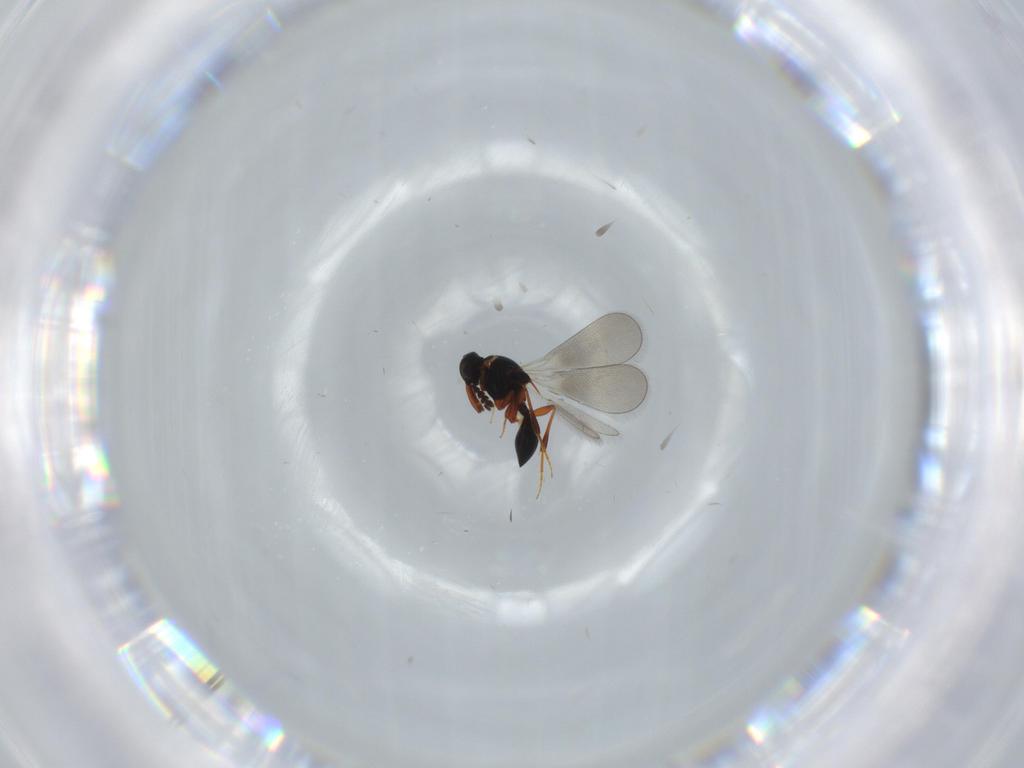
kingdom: Animalia
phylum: Arthropoda
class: Insecta
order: Hymenoptera
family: Platygastridae
